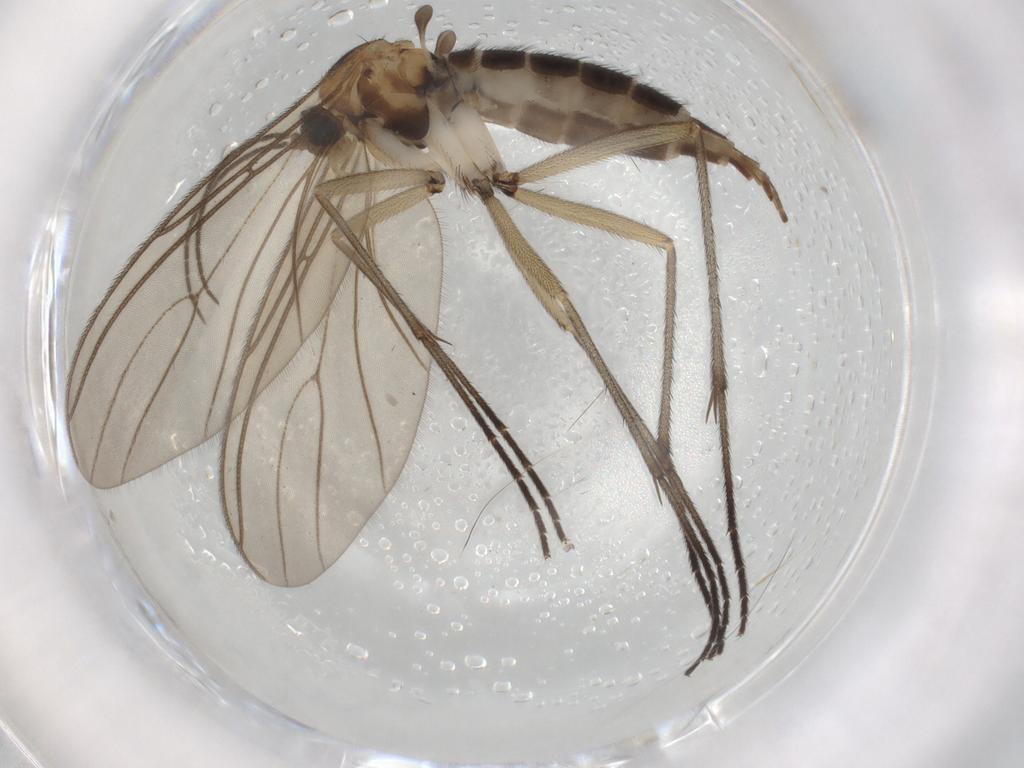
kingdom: Animalia
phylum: Arthropoda
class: Insecta
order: Diptera
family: Sciaridae
